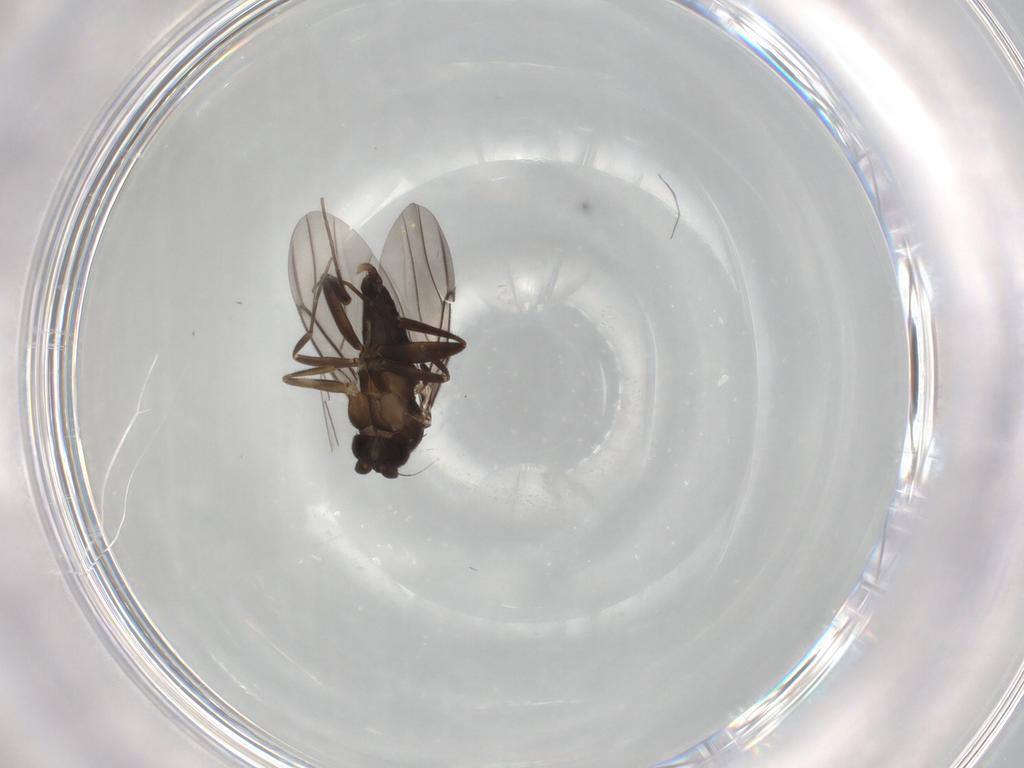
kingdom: Animalia
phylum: Arthropoda
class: Insecta
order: Diptera
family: Phoridae
